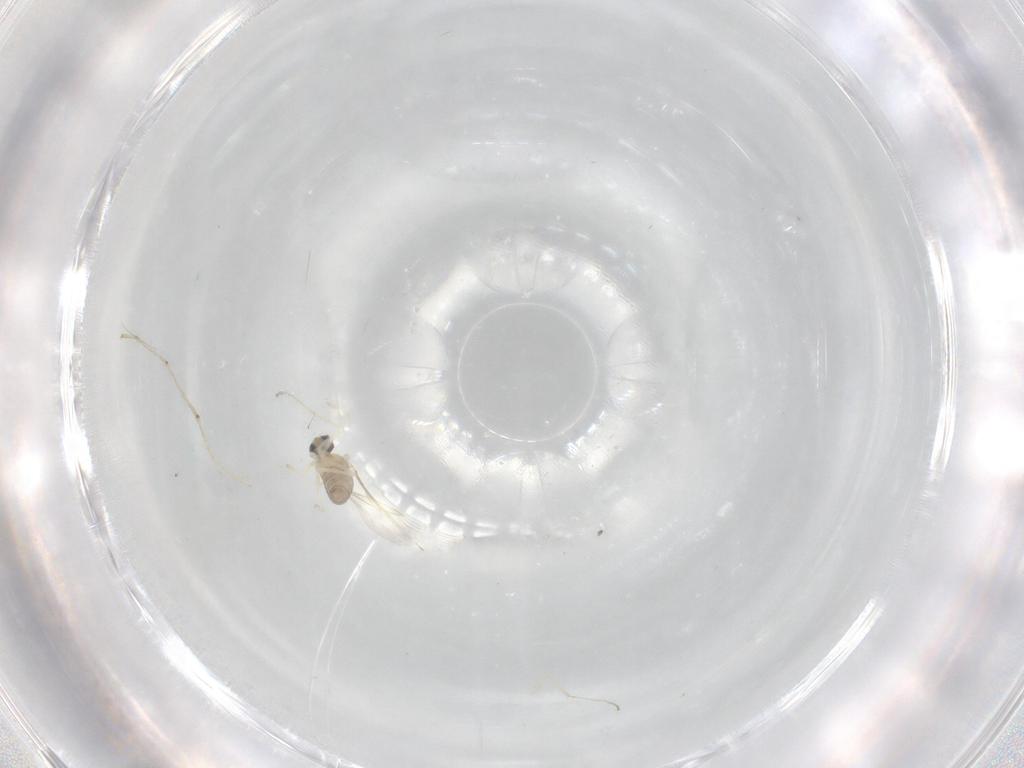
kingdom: Animalia
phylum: Arthropoda
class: Insecta
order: Diptera
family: Cecidomyiidae
